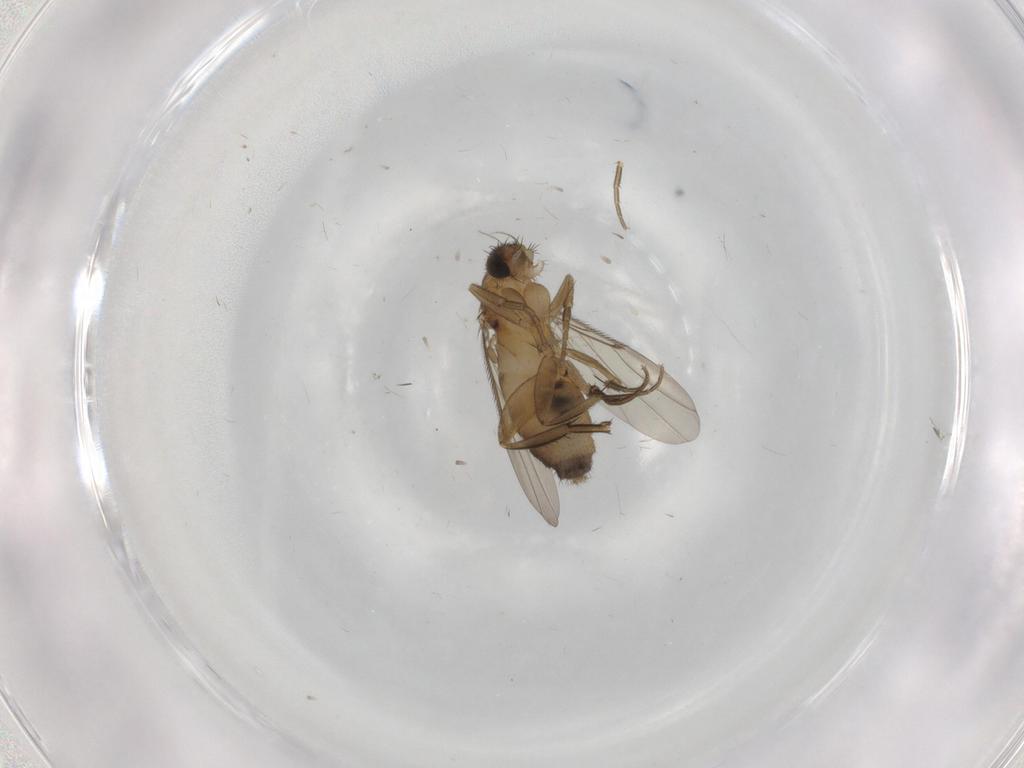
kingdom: Animalia
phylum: Arthropoda
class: Insecta
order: Diptera
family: Phoridae
